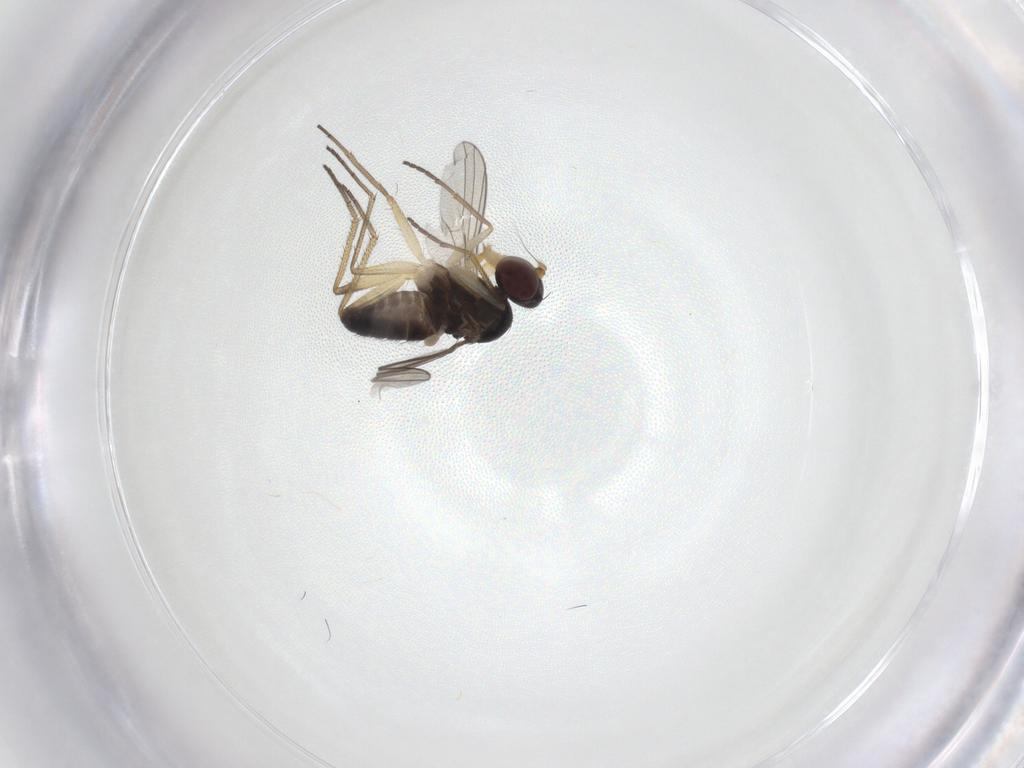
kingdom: Animalia
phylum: Arthropoda
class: Insecta
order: Diptera
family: Dolichopodidae
